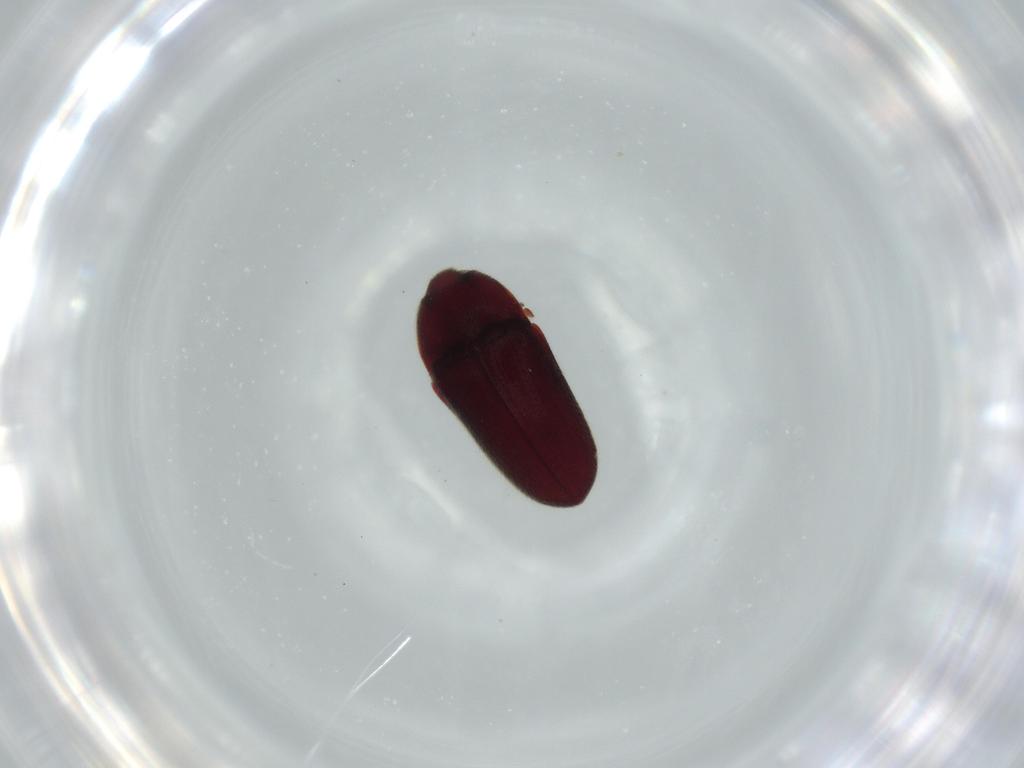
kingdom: Animalia
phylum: Arthropoda
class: Insecta
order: Coleoptera
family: Throscidae
